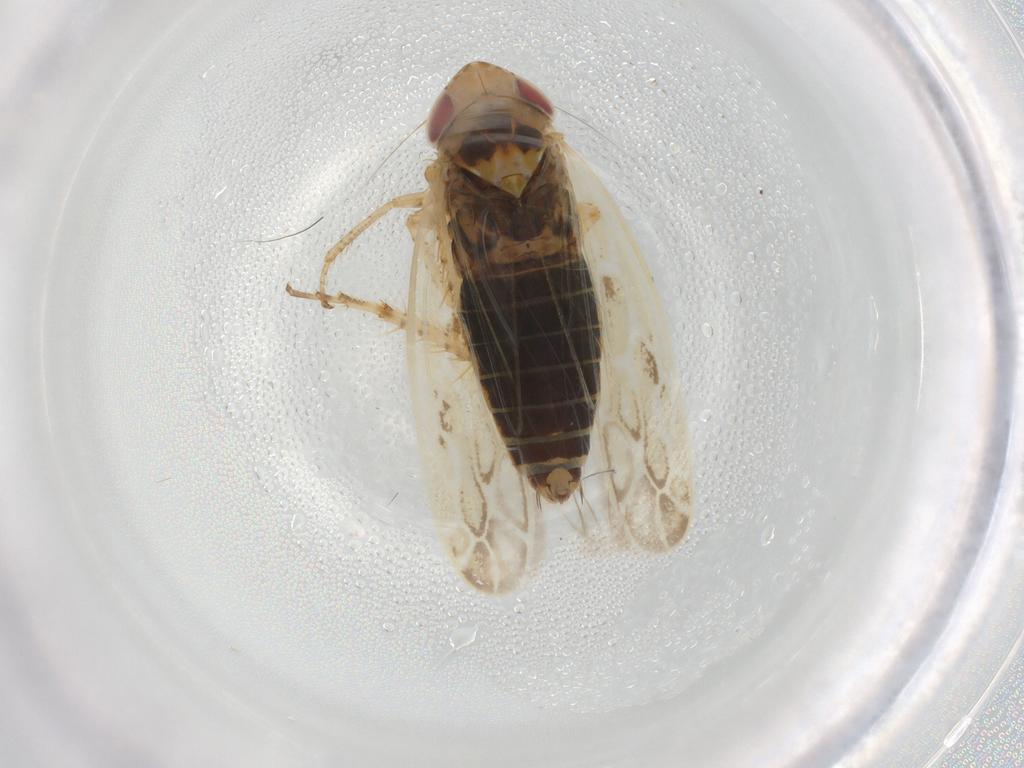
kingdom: Animalia
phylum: Arthropoda
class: Insecta
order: Hemiptera
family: Cicadellidae
